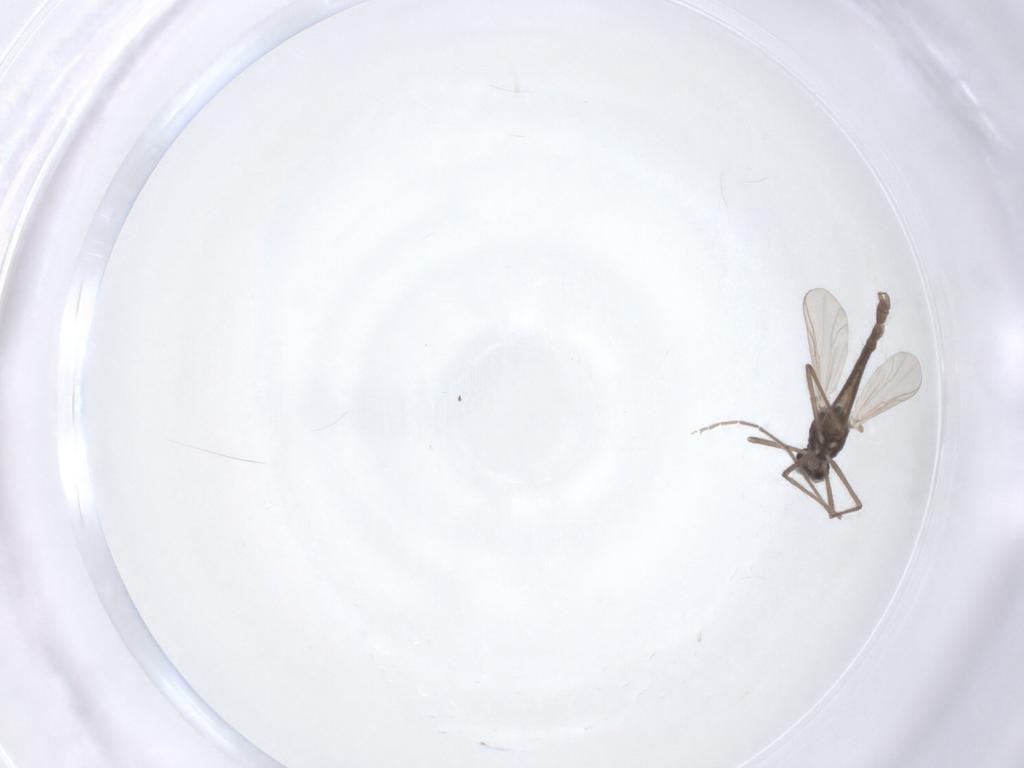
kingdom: Animalia
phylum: Arthropoda
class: Insecta
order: Diptera
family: Chironomidae
